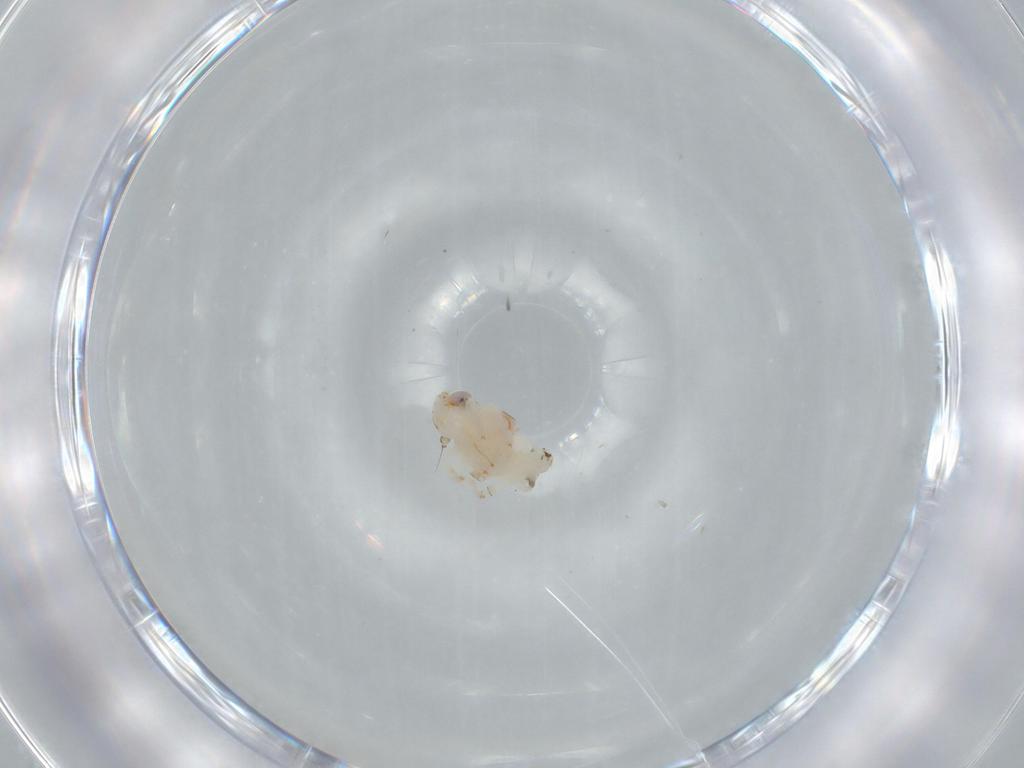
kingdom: Animalia
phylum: Arthropoda
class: Insecta
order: Hemiptera
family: Nogodinidae
